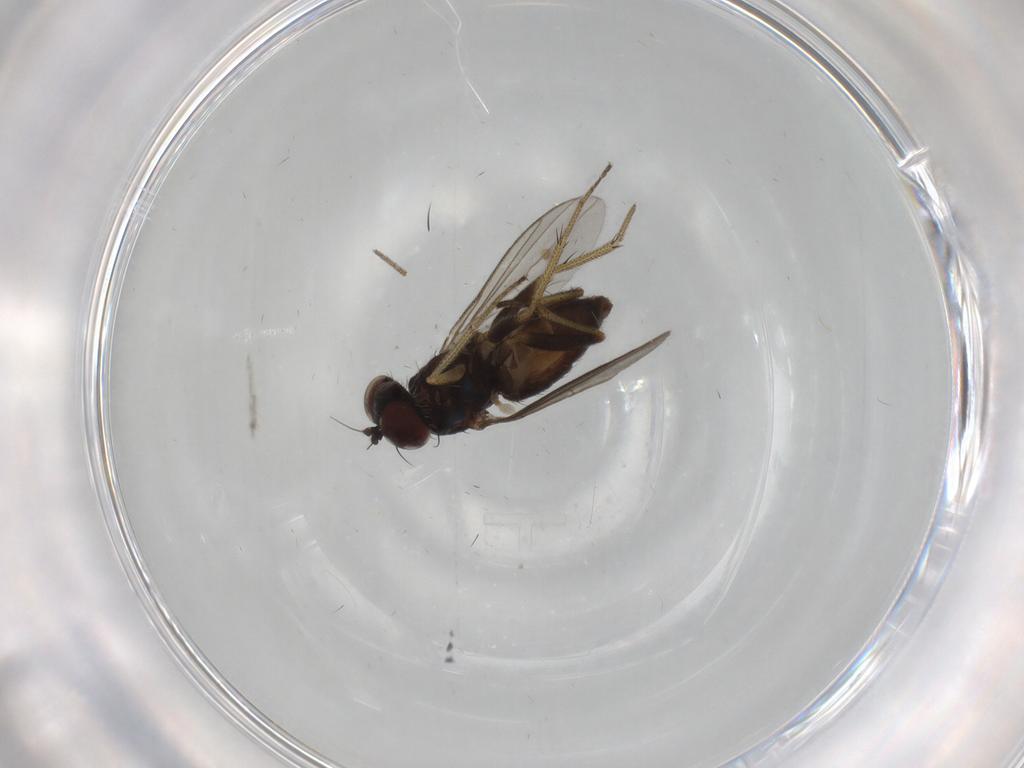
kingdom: Animalia
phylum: Arthropoda
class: Insecta
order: Diptera
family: Dolichopodidae
